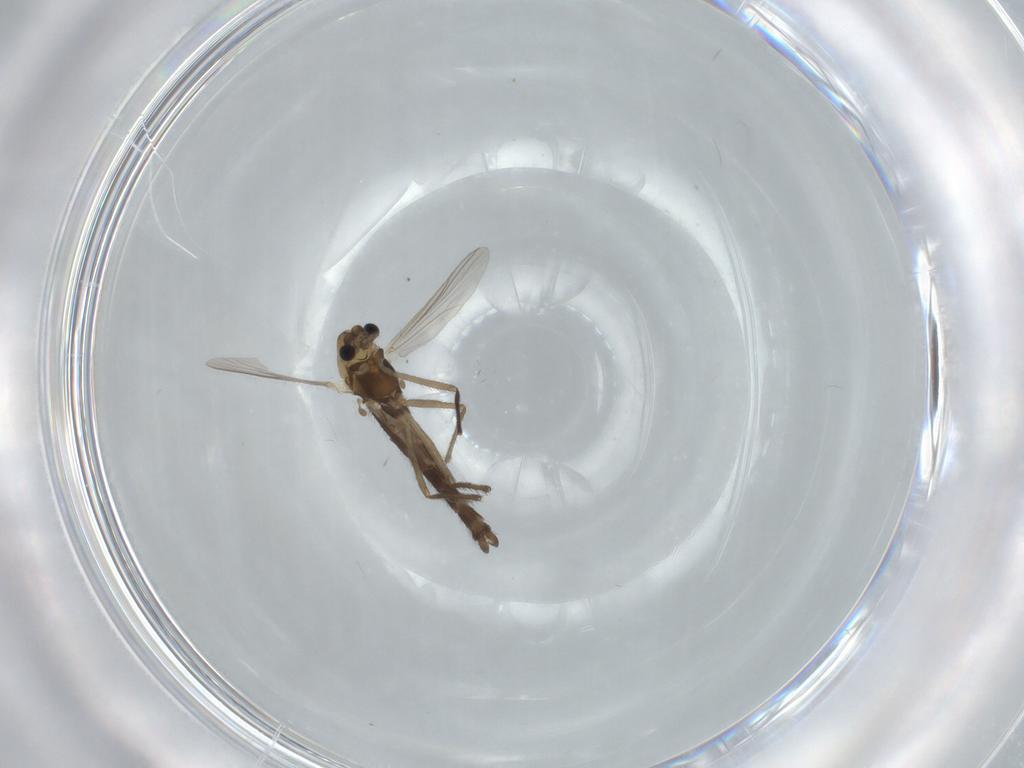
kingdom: Animalia
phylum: Arthropoda
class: Insecta
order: Diptera
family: Chironomidae
